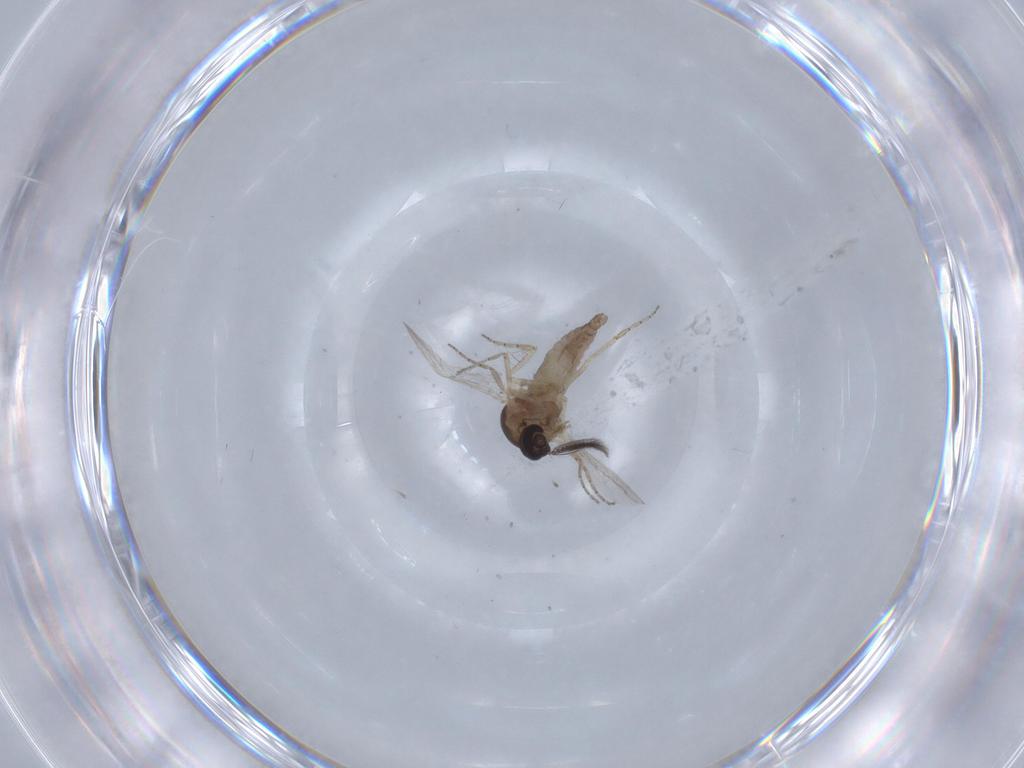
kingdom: Animalia
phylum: Arthropoda
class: Insecta
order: Diptera
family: Ceratopogonidae
